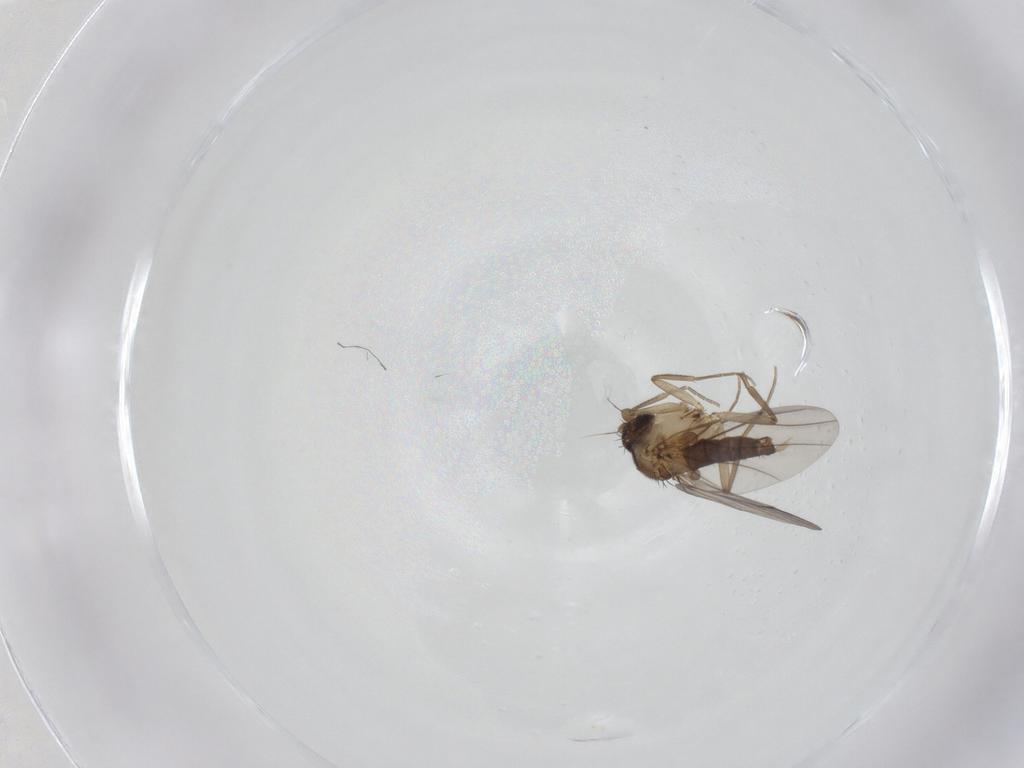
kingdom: Animalia
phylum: Arthropoda
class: Insecta
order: Diptera
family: Phoridae
